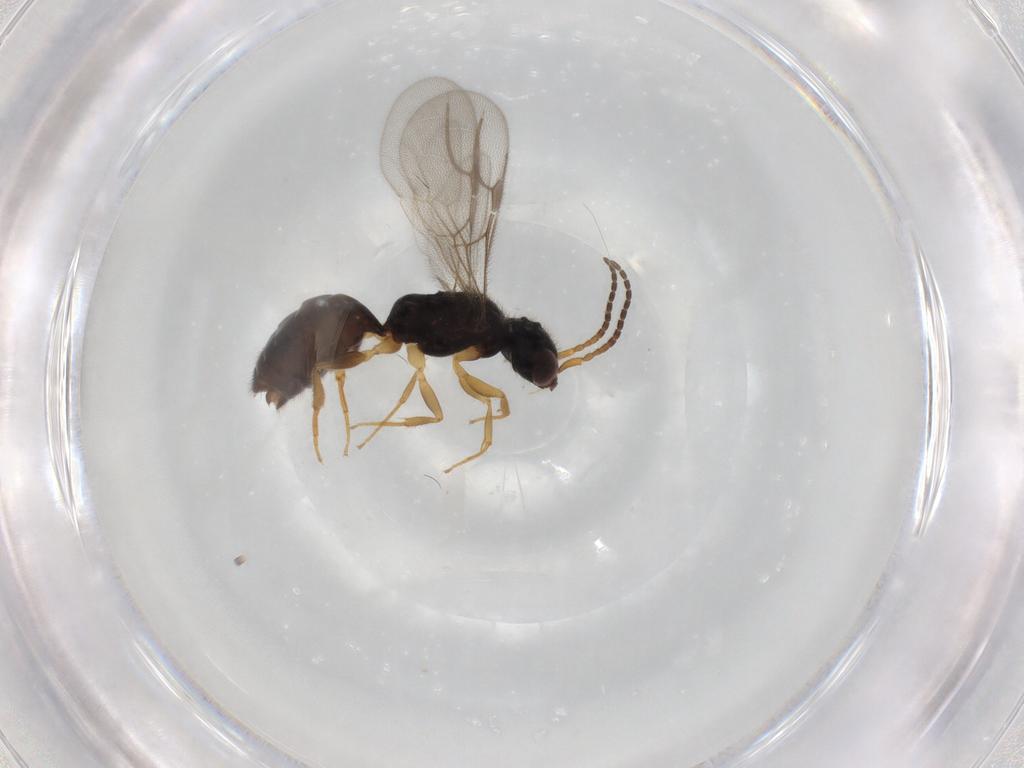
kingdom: Animalia
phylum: Arthropoda
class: Insecta
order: Hymenoptera
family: Bethylidae
